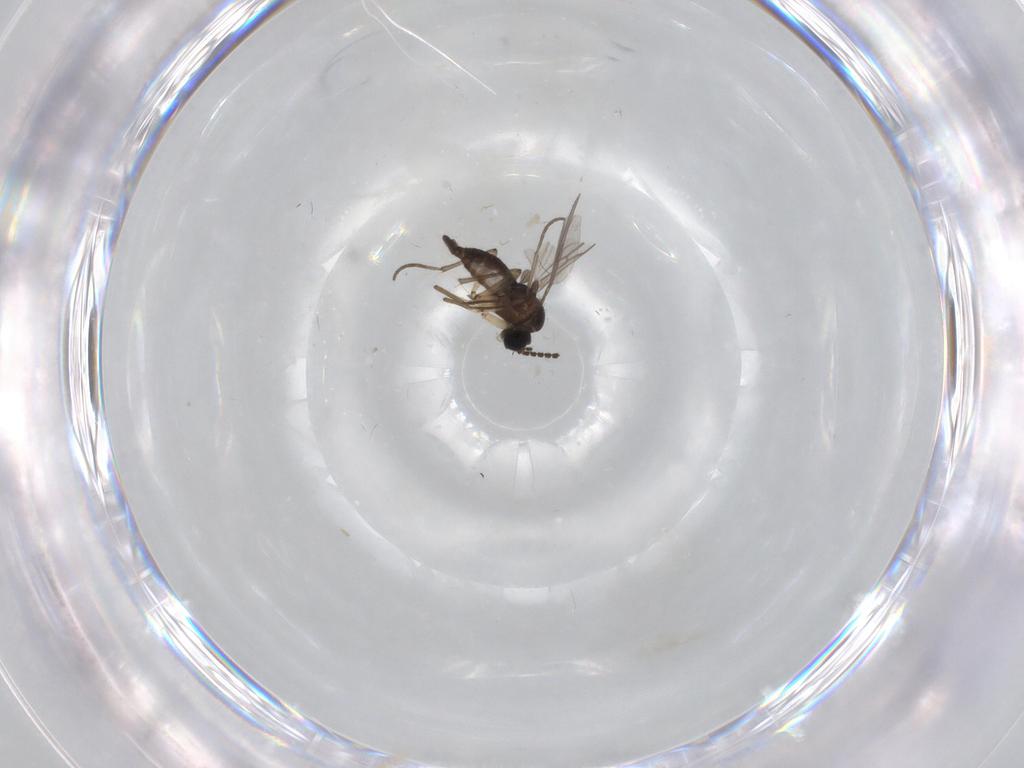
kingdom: Animalia
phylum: Arthropoda
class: Insecta
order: Diptera
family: Sciaridae
